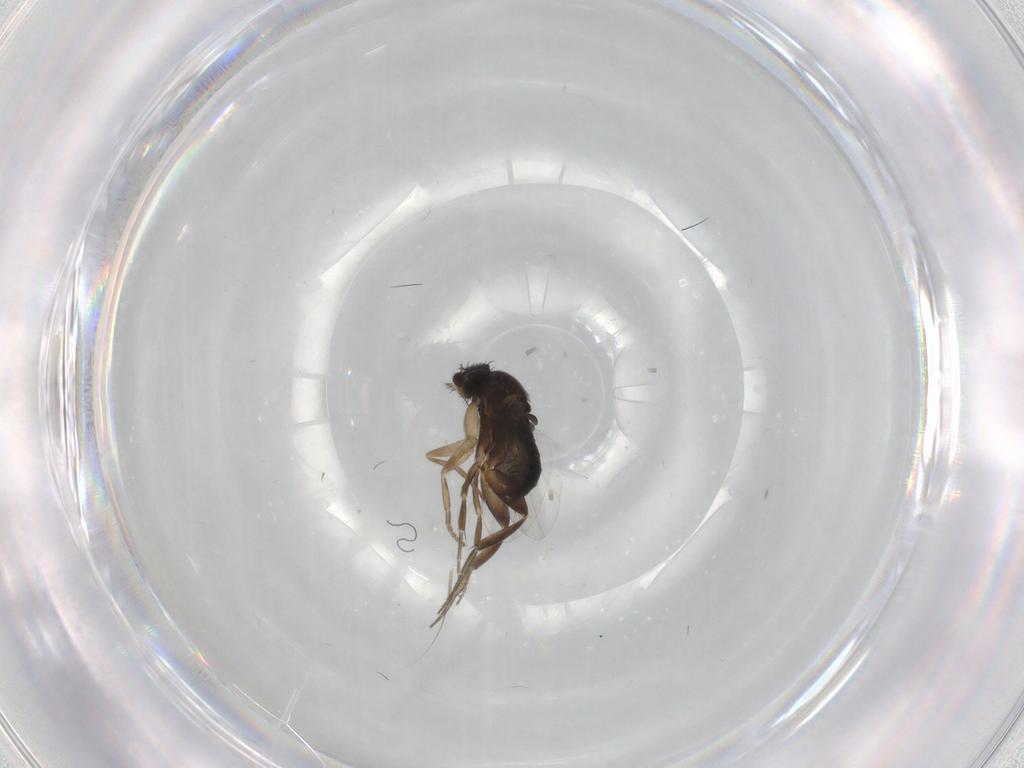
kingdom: Animalia
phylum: Arthropoda
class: Insecta
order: Diptera
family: Phoridae
